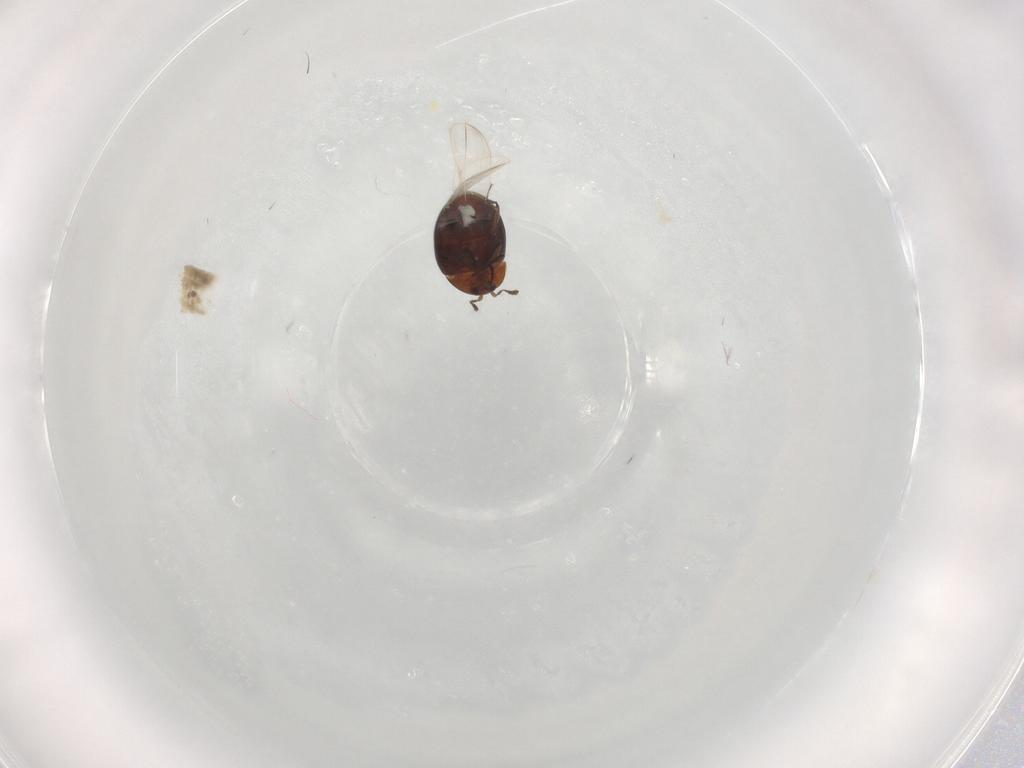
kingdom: Animalia
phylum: Arthropoda
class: Insecta
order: Coleoptera
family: Corylophidae
